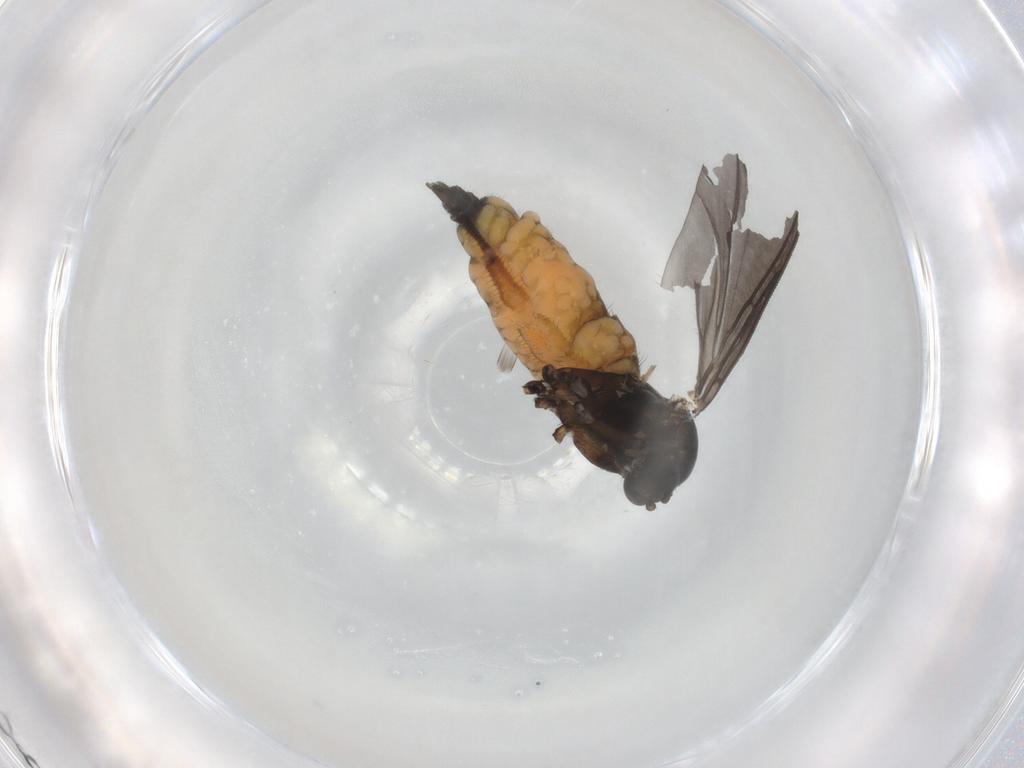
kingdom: Animalia
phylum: Arthropoda
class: Insecta
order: Diptera
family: Sciaridae
